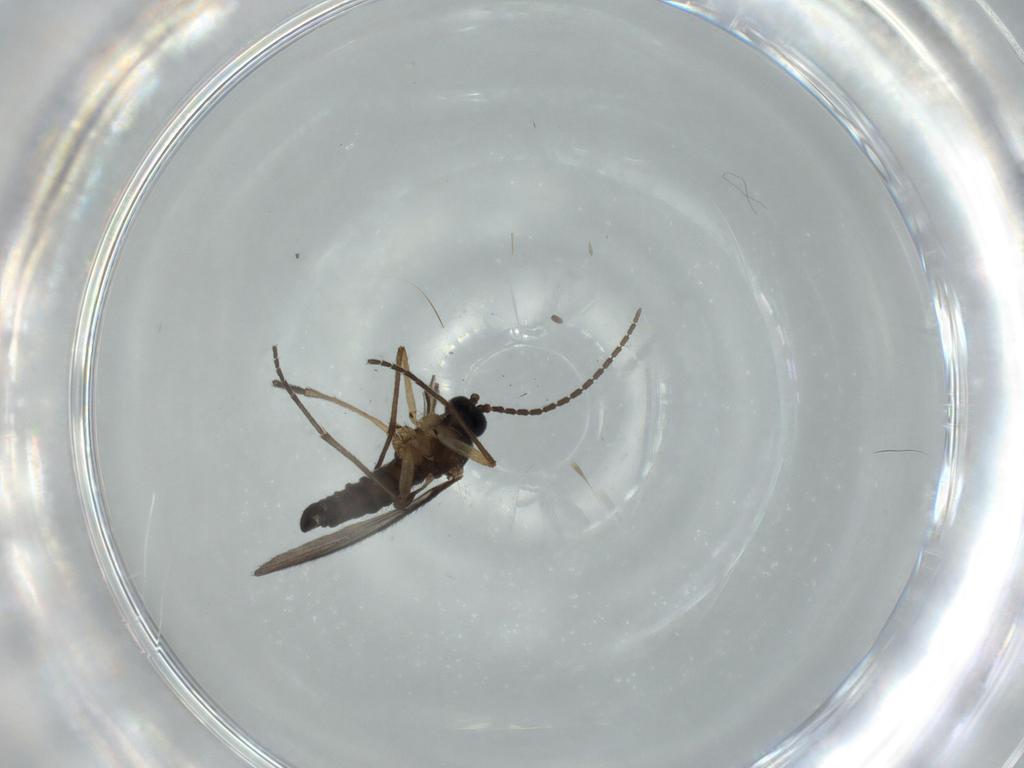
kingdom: Animalia
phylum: Arthropoda
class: Insecta
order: Diptera
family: Sciaridae
